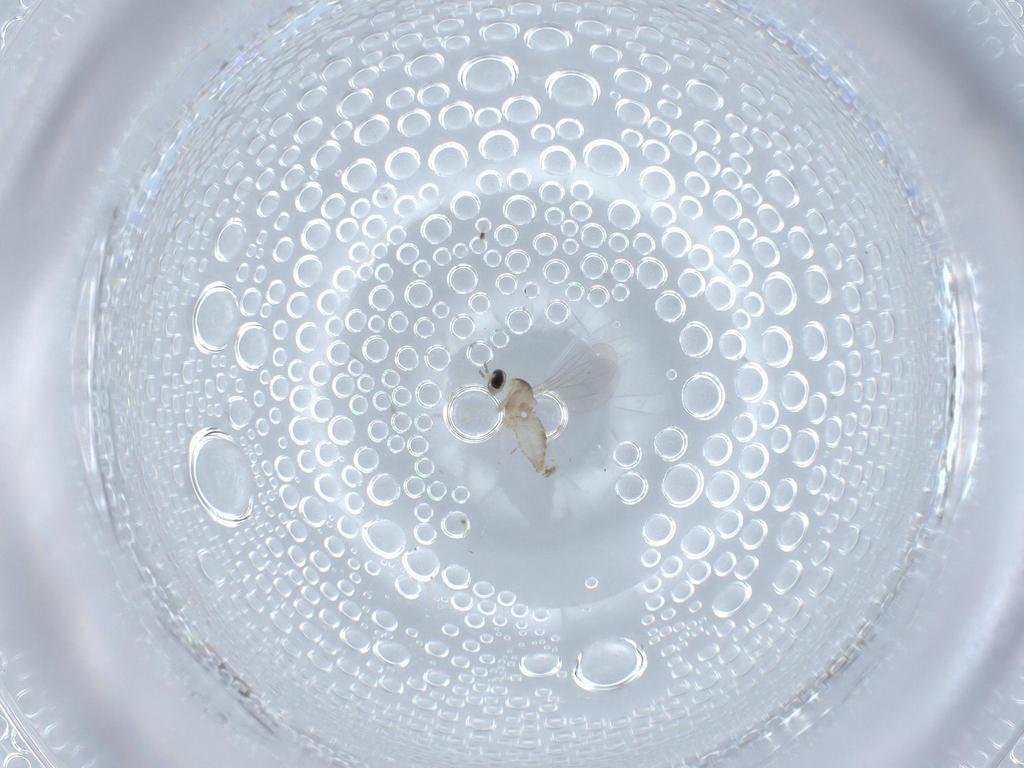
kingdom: Animalia
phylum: Arthropoda
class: Insecta
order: Diptera
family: Cecidomyiidae
